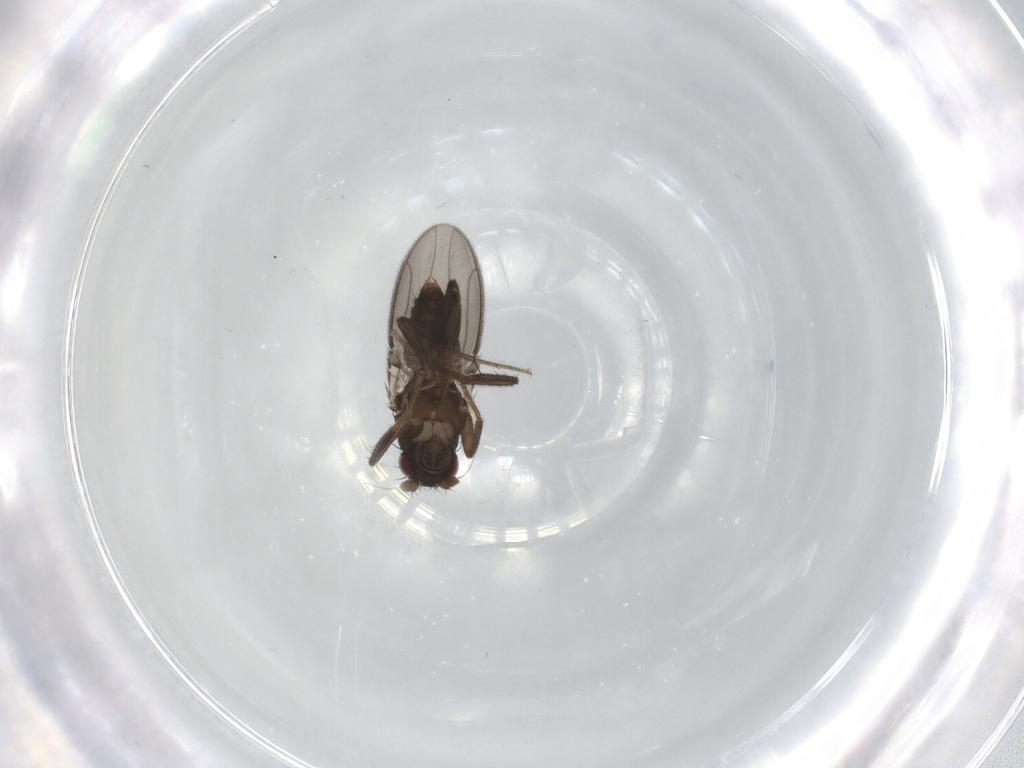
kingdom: Animalia
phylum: Arthropoda
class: Insecta
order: Diptera
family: Sphaeroceridae
